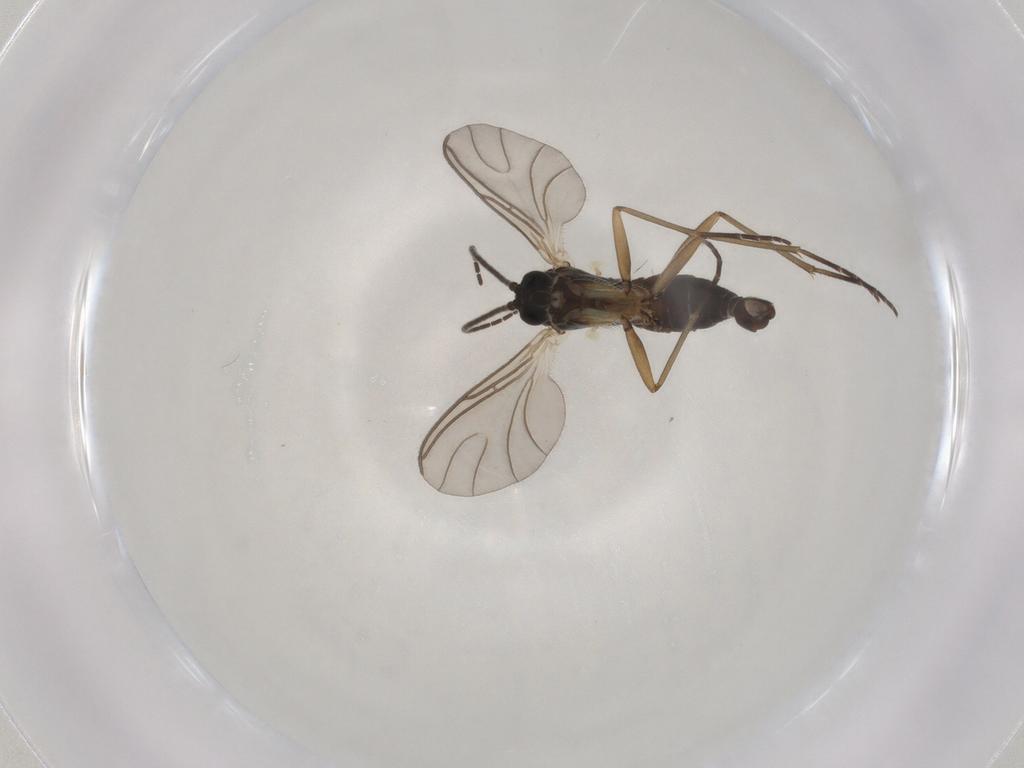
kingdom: Animalia
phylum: Arthropoda
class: Insecta
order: Diptera
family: Sciaridae
